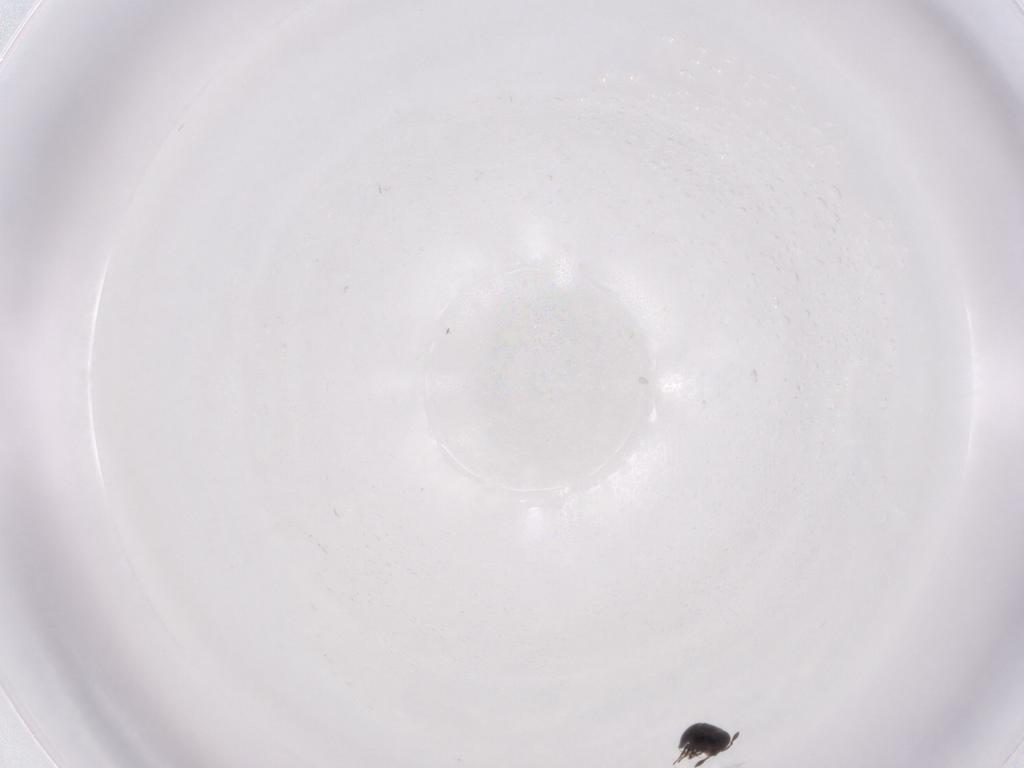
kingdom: Animalia
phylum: Arthropoda
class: Insecta
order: Hymenoptera
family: Scelionidae
